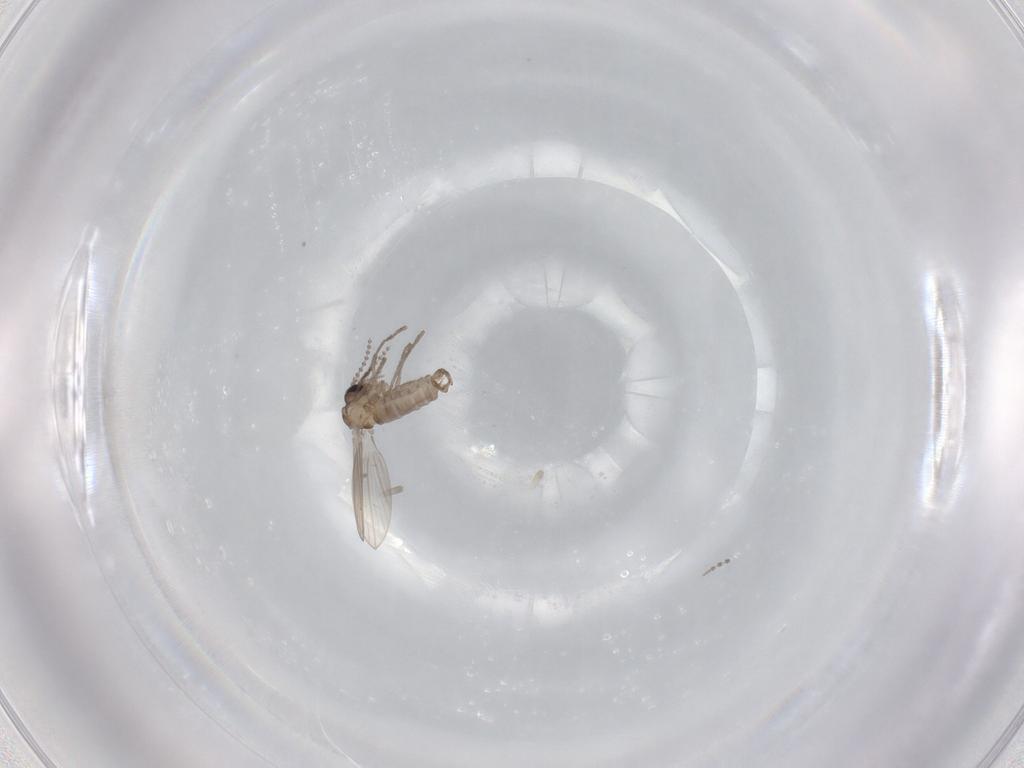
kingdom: Animalia
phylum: Arthropoda
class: Insecta
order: Diptera
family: Psychodidae
